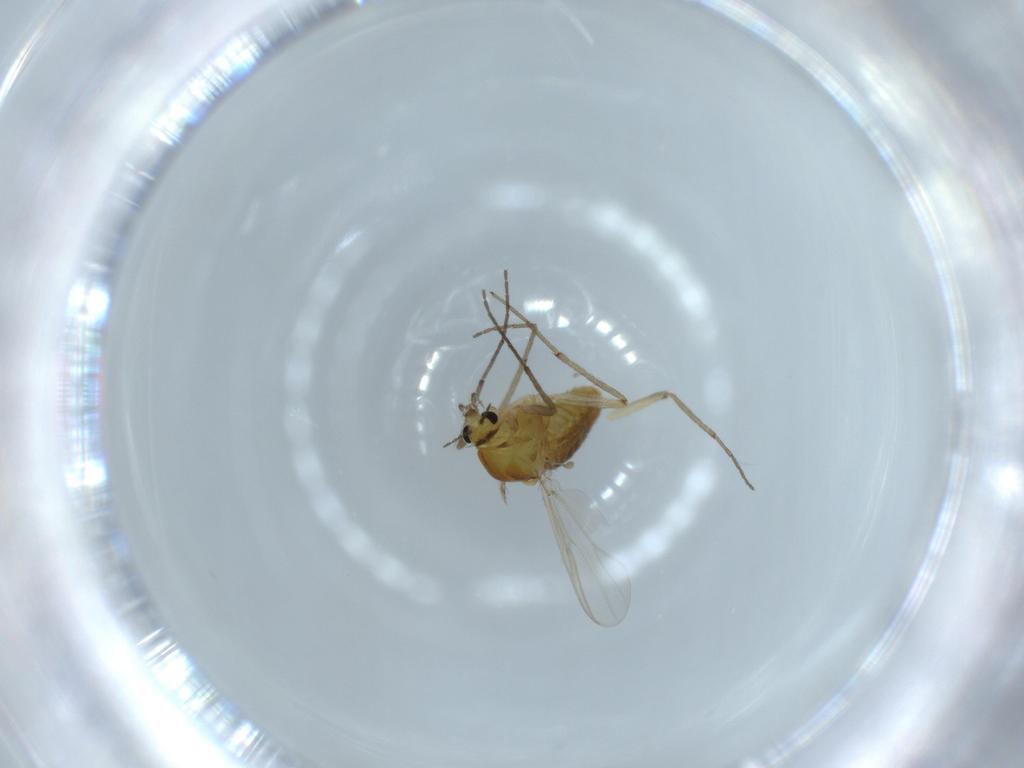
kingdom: Animalia
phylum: Arthropoda
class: Insecta
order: Diptera
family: Chironomidae
